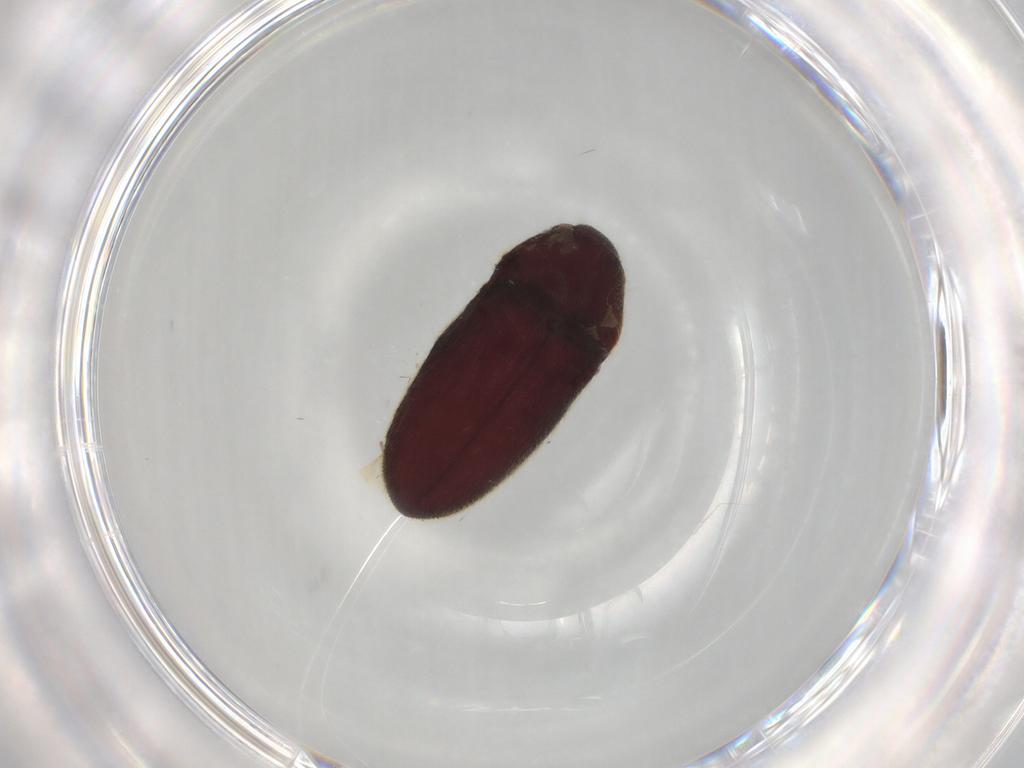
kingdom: Animalia
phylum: Arthropoda
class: Insecta
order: Coleoptera
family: Throscidae
